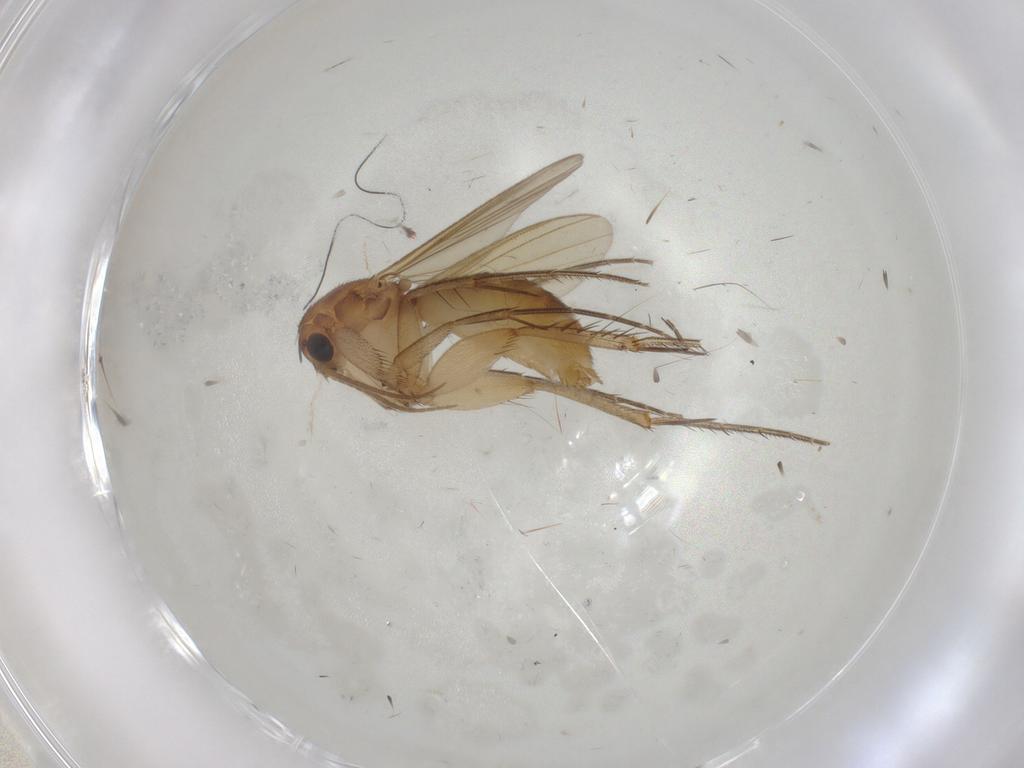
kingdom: Animalia
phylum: Arthropoda
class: Insecta
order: Diptera
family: Mycetophilidae
